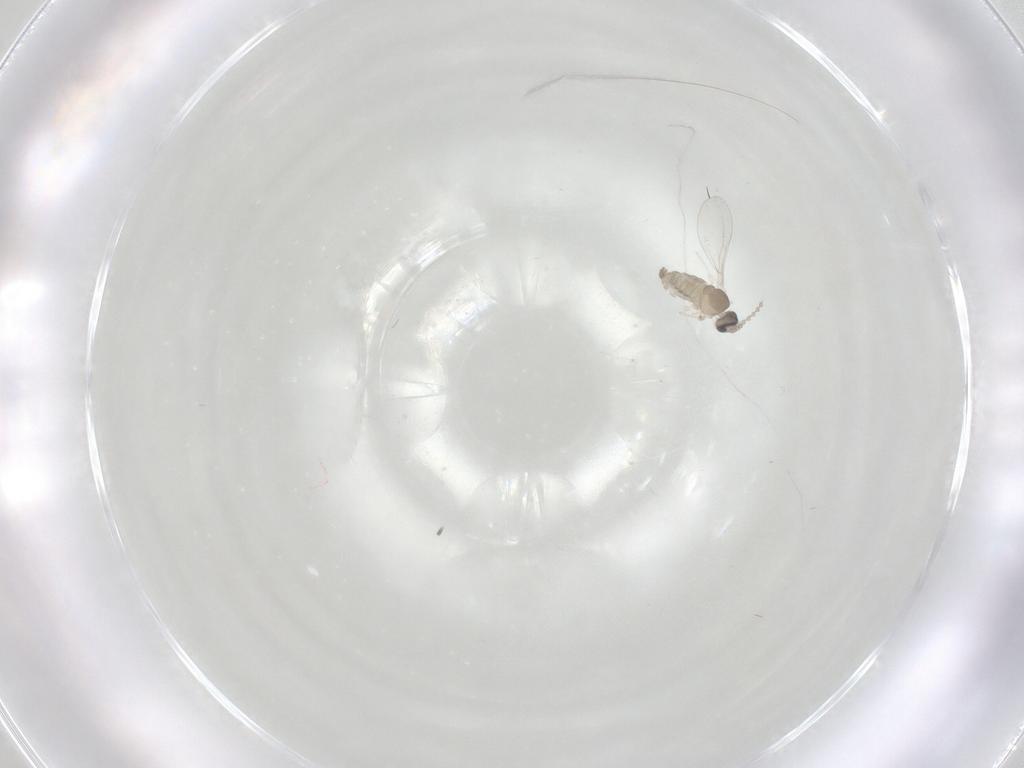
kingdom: Animalia
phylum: Arthropoda
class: Insecta
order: Diptera
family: Cecidomyiidae
